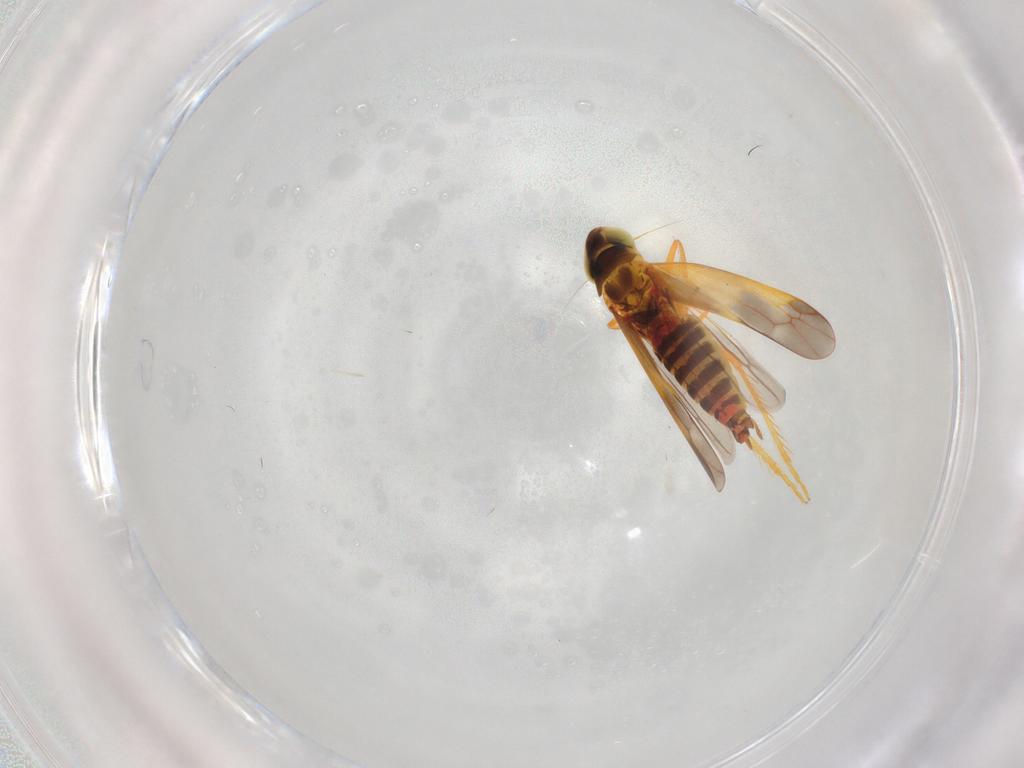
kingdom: Animalia
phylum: Arthropoda
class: Insecta
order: Hemiptera
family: Cicadellidae
